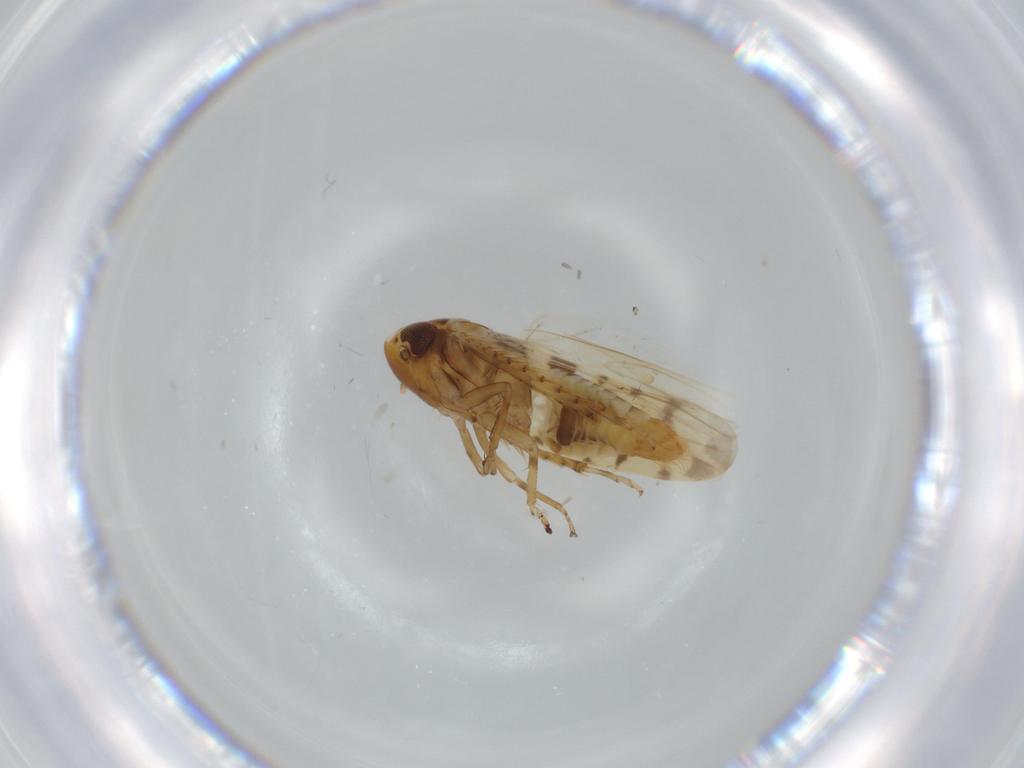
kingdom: Animalia
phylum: Arthropoda
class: Insecta
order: Hemiptera
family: Cicadellidae
